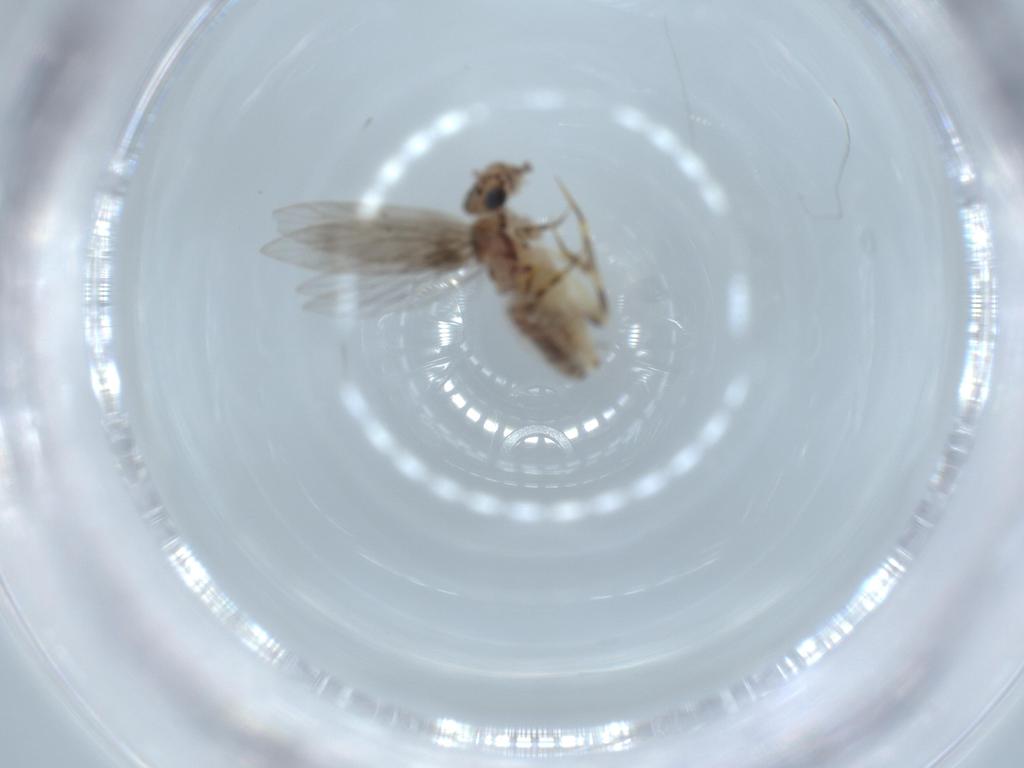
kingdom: Animalia
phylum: Arthropoda
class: Insecta
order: Psocodea
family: Lepidopsocidae
